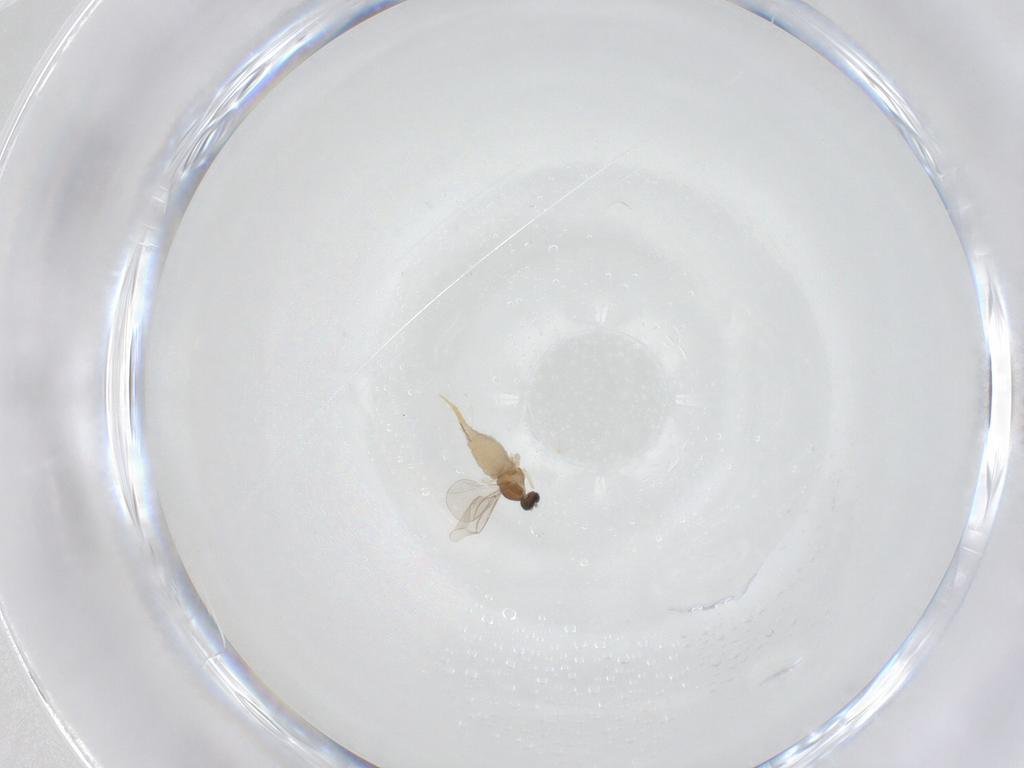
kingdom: Animalia
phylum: Arthropoda
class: Insecta
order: Diptera
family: Cecidomyiidae
